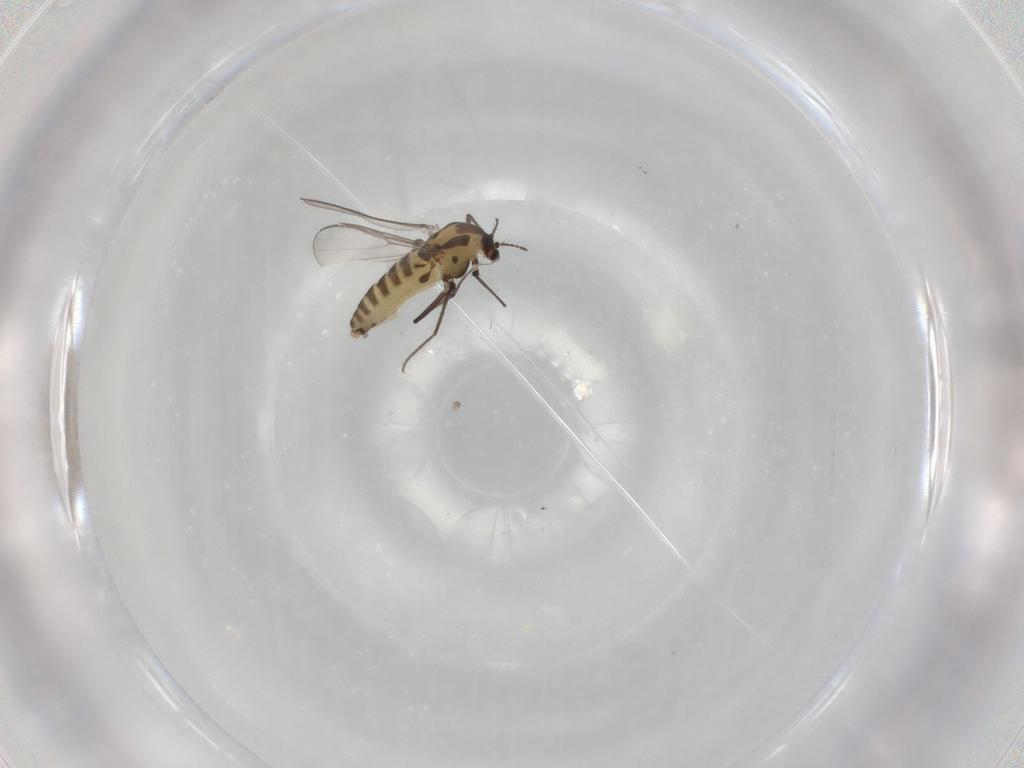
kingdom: Animalia
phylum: Arthropoda
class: Insecta
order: Diptera
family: Chironomidae
